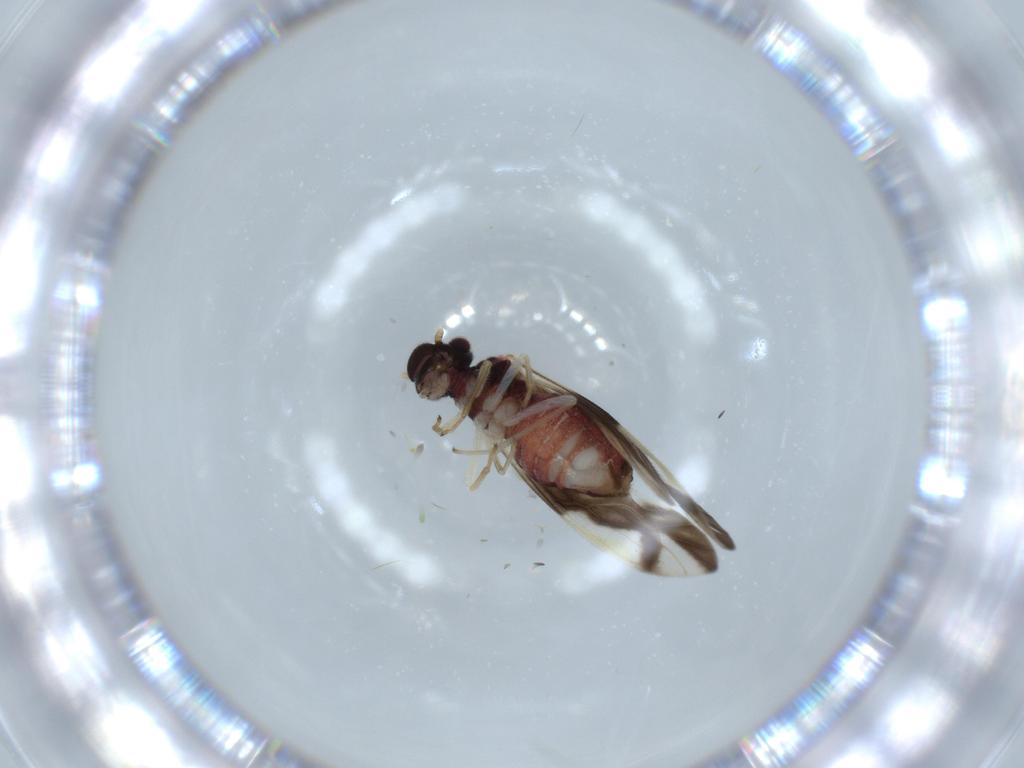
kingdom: Animalia
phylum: Arthropoda
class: Insecta
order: Psocodea
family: Caeciliusidae
